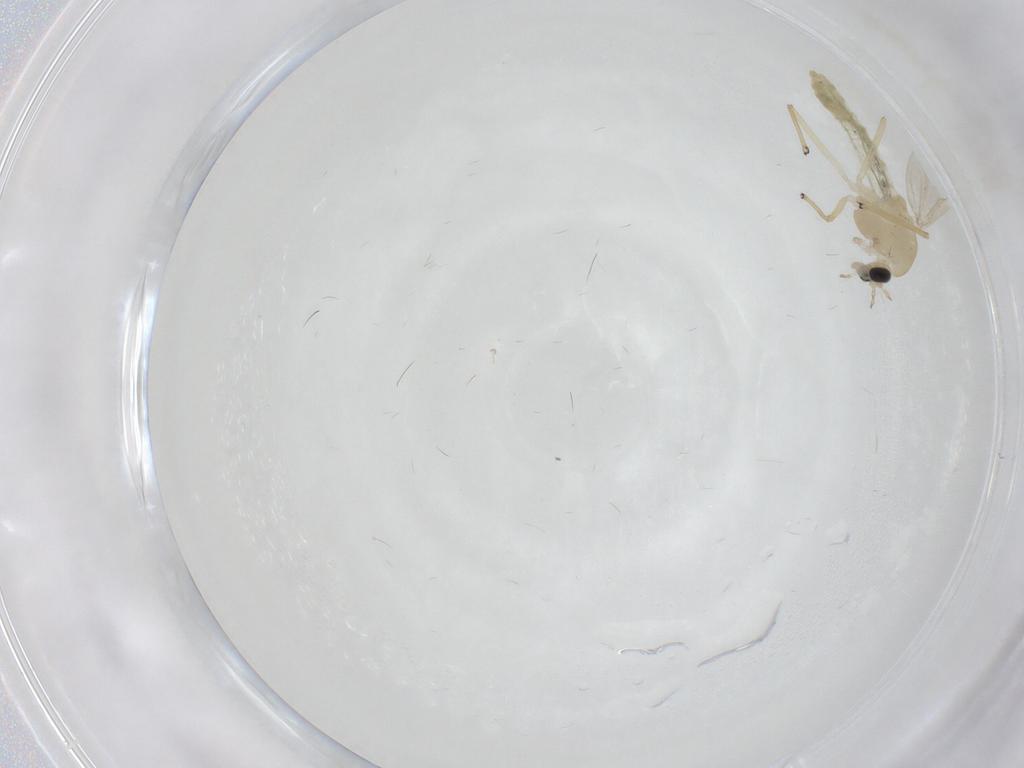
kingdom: Animalia
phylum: Arthropoda
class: Insecta
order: Diptera
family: Chironomidae
